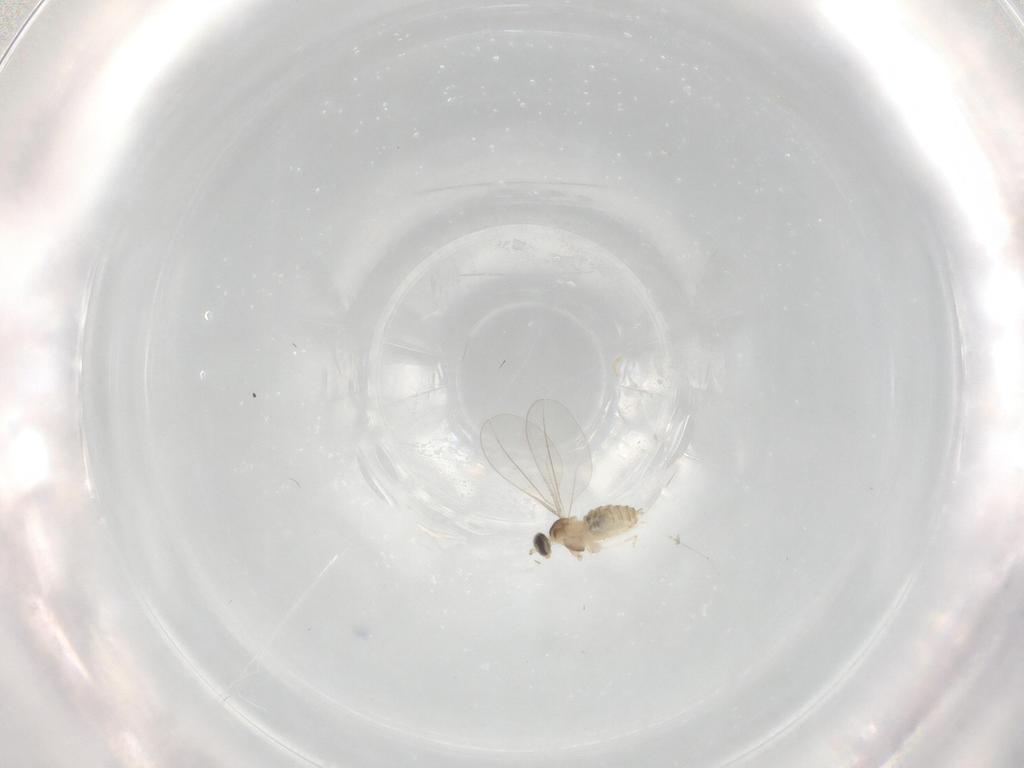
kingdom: Animalia
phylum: Arthropoda
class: Insecta
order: Diptera
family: Cecidomyiidae
